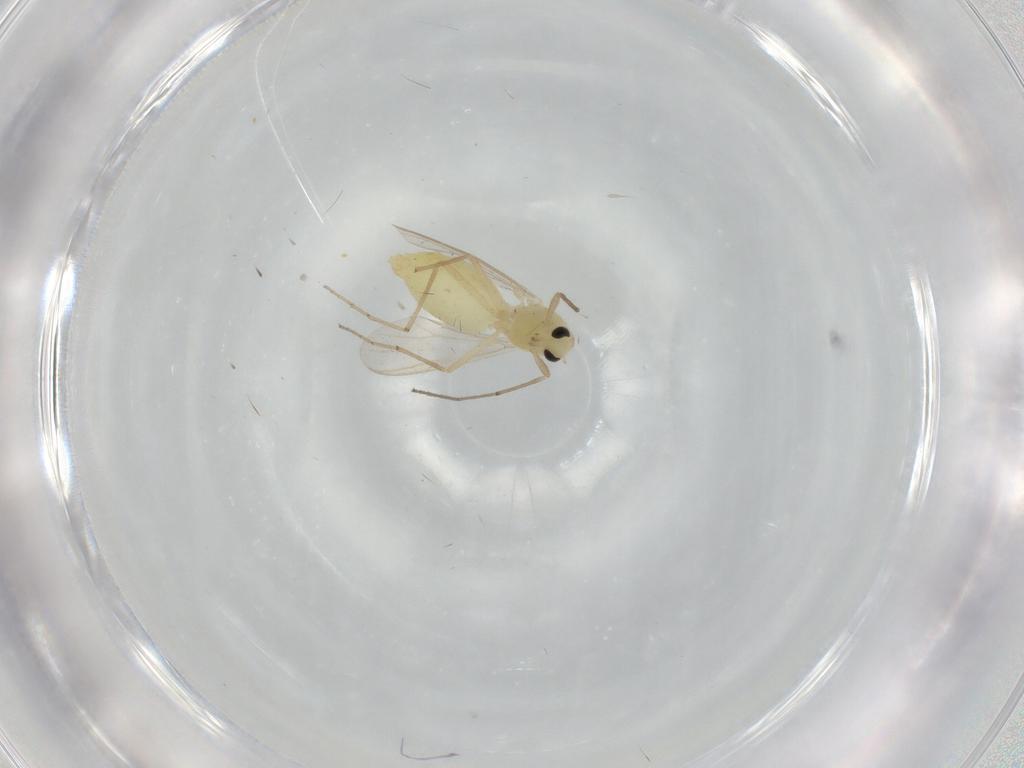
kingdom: Animalia
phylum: Arthropoda
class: Insecta
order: Diptera
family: Chironomidae
